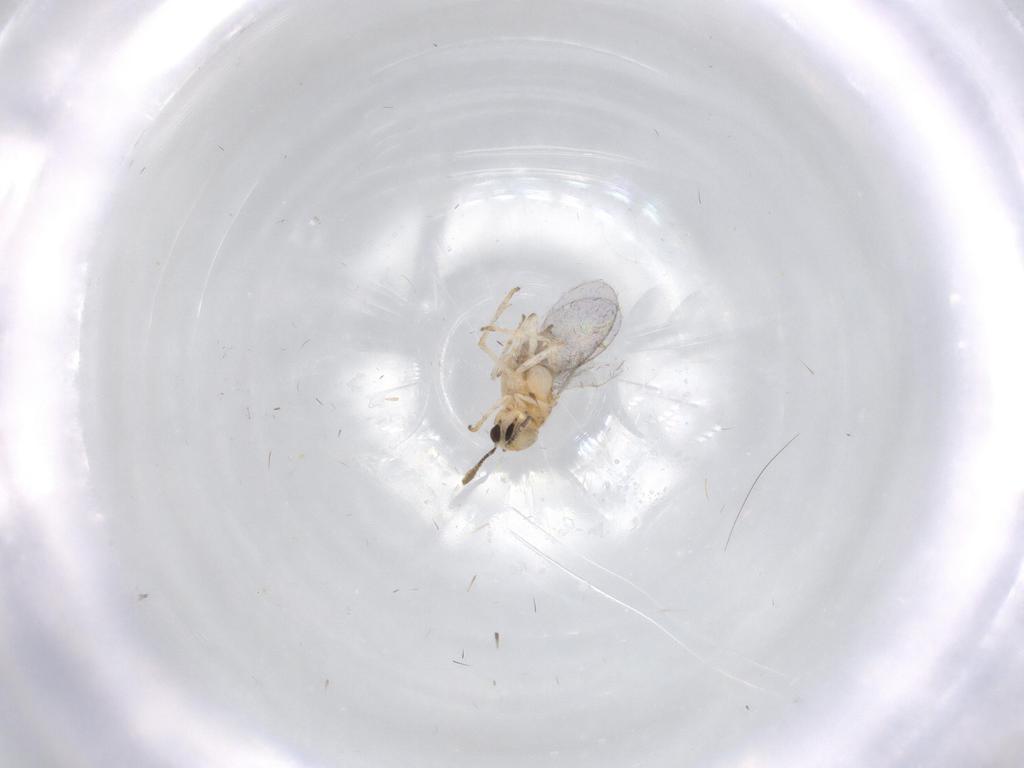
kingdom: Animalia
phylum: Arthropoda
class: Insecta
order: Hymenoptera
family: Encyrtidae
